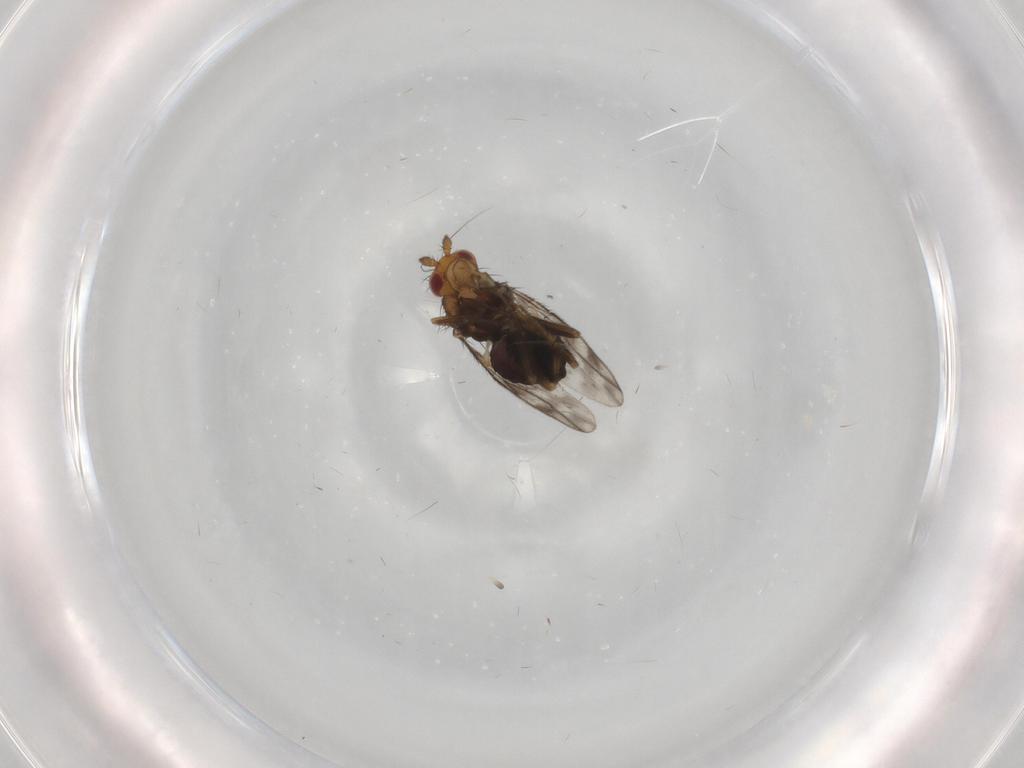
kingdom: Animalia
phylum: Arthropoda
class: Insecta
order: Diptera
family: Sphaeroceridae
